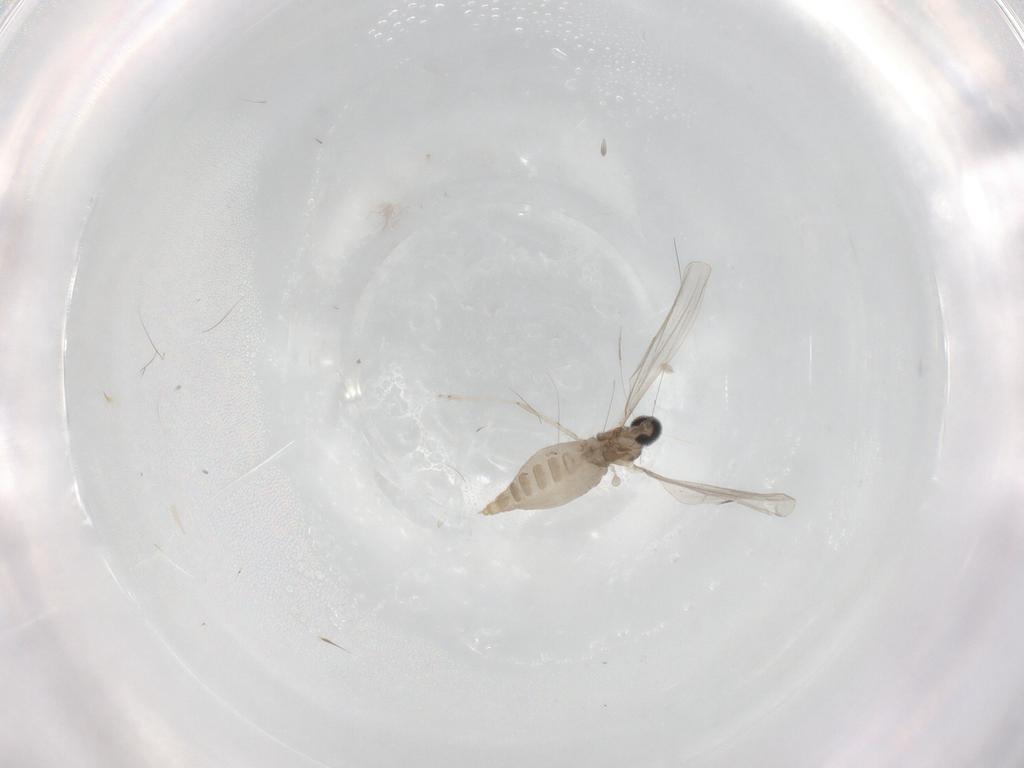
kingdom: Animalia
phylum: Arthropoda
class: Insecta
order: Diptera
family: Cecidomyiidae
